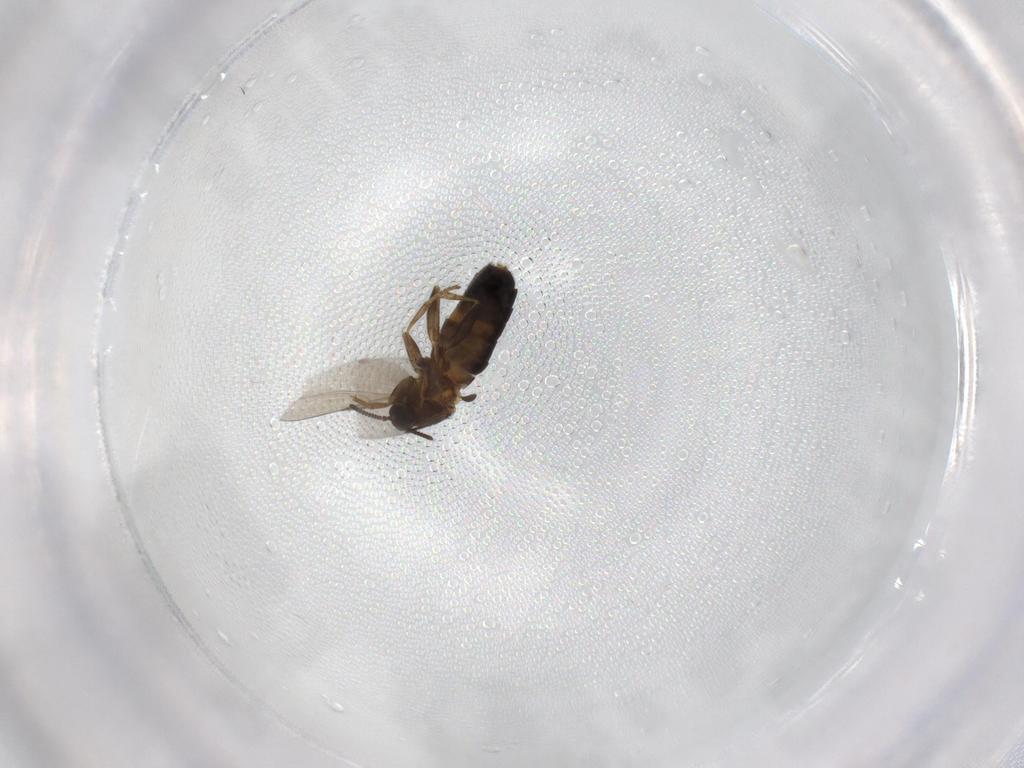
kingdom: Animalia
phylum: Arthropoda
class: Insecta
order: Diptera
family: Scatopsidae
